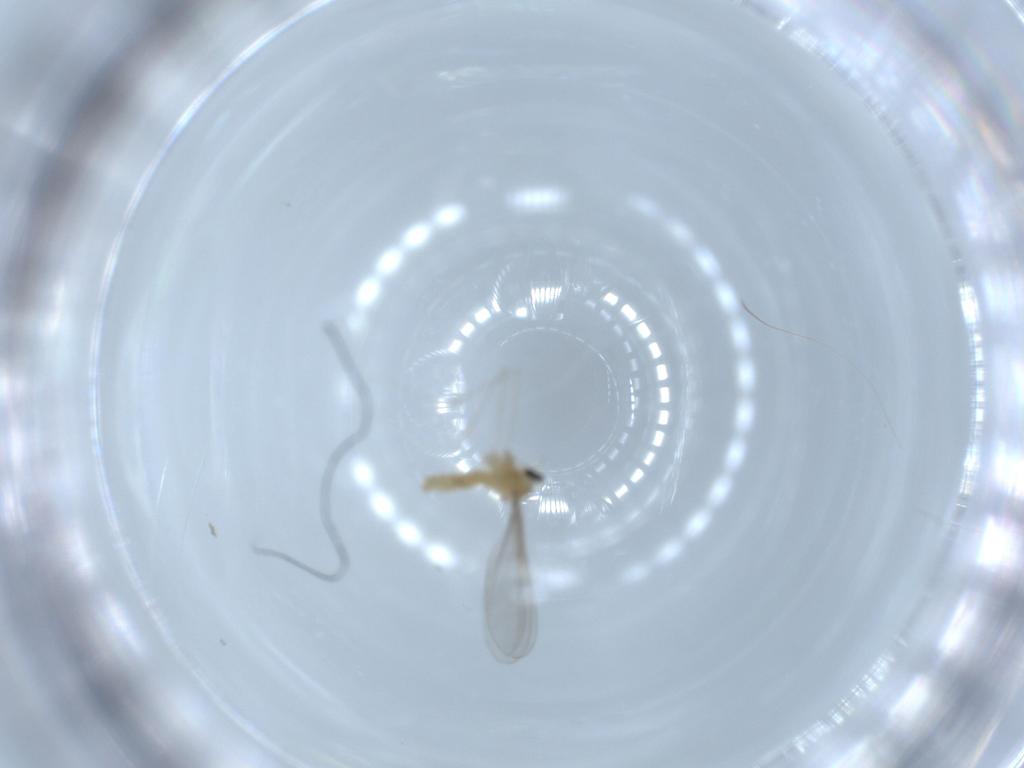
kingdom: Animalia
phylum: Arthropoda
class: Insecta
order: Diptera
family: Cecidomyiidae
